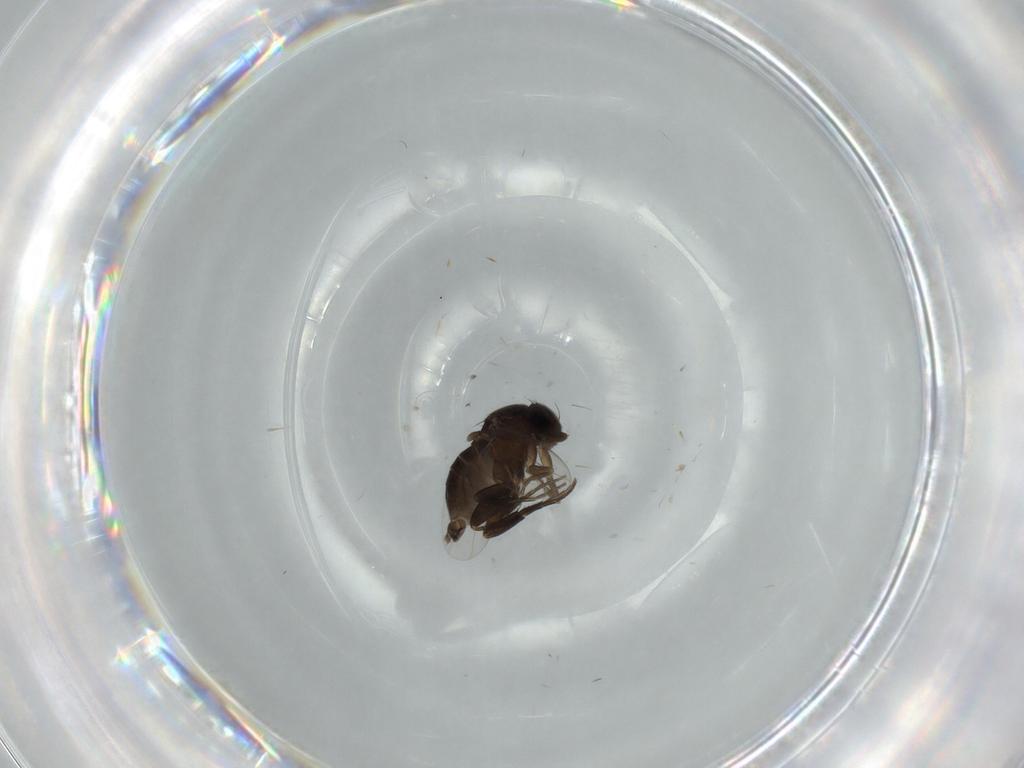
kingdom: Animalia
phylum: Arthropoda
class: Insecta
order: Diptera
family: Phoridae
